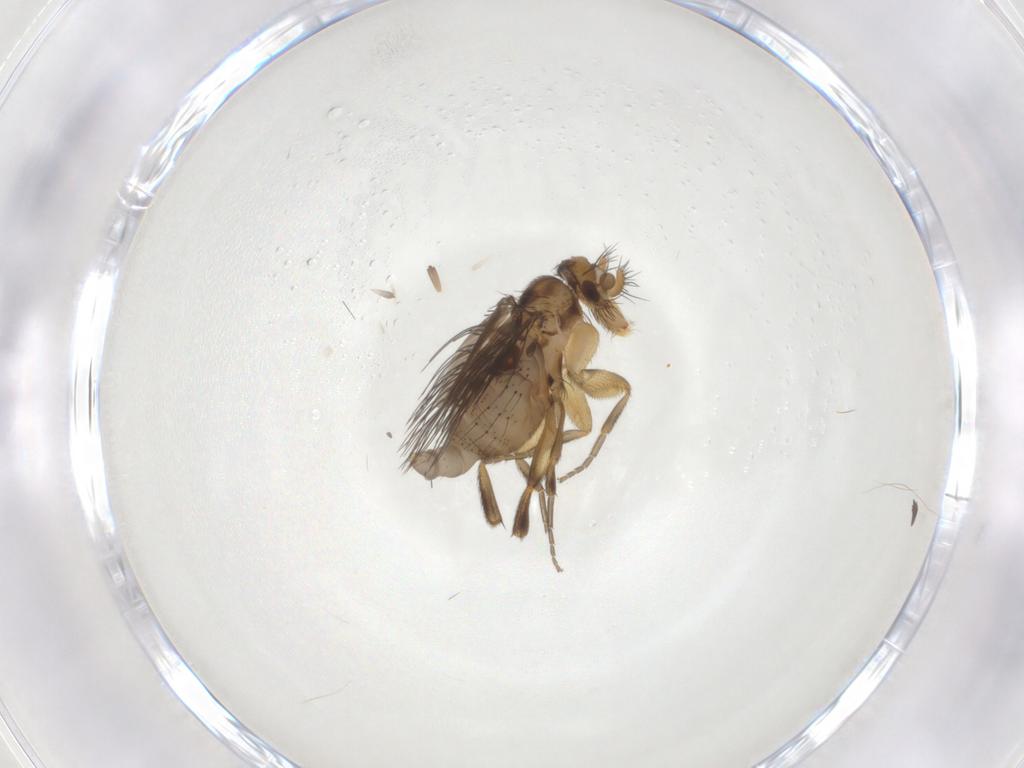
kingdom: Animalia
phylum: Arthropoda
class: Insecta
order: Diptera
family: Phoridae
